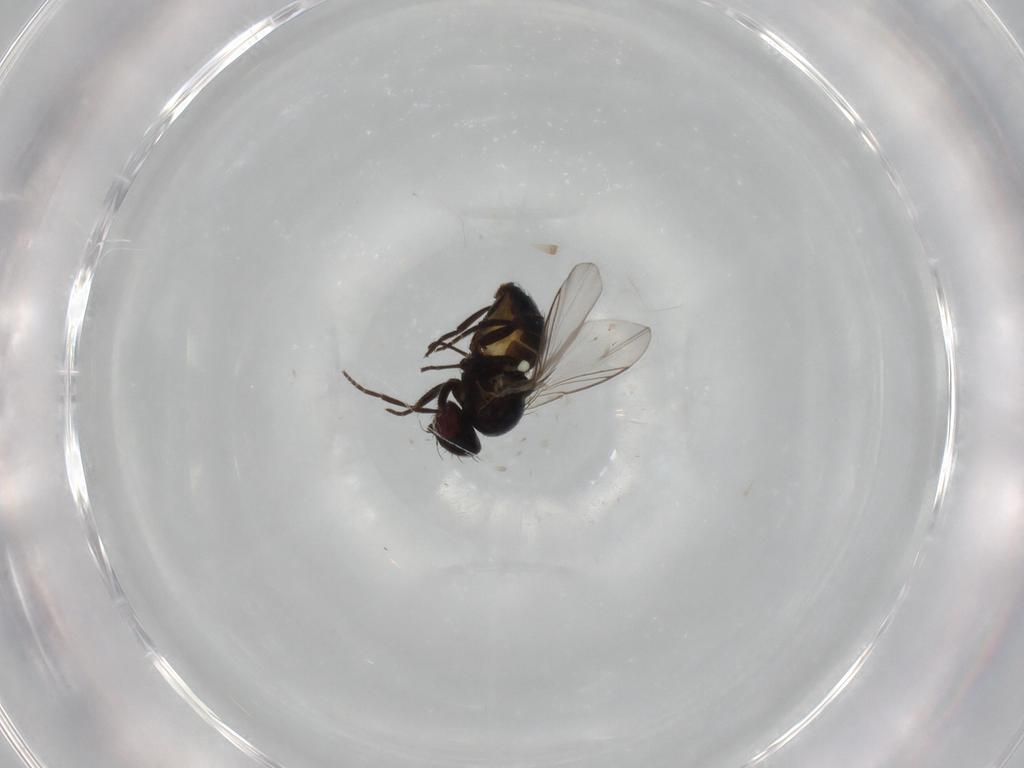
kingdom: Animalia
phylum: Arthropoda
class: Insecta
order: Diptera
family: Agromyzidae
